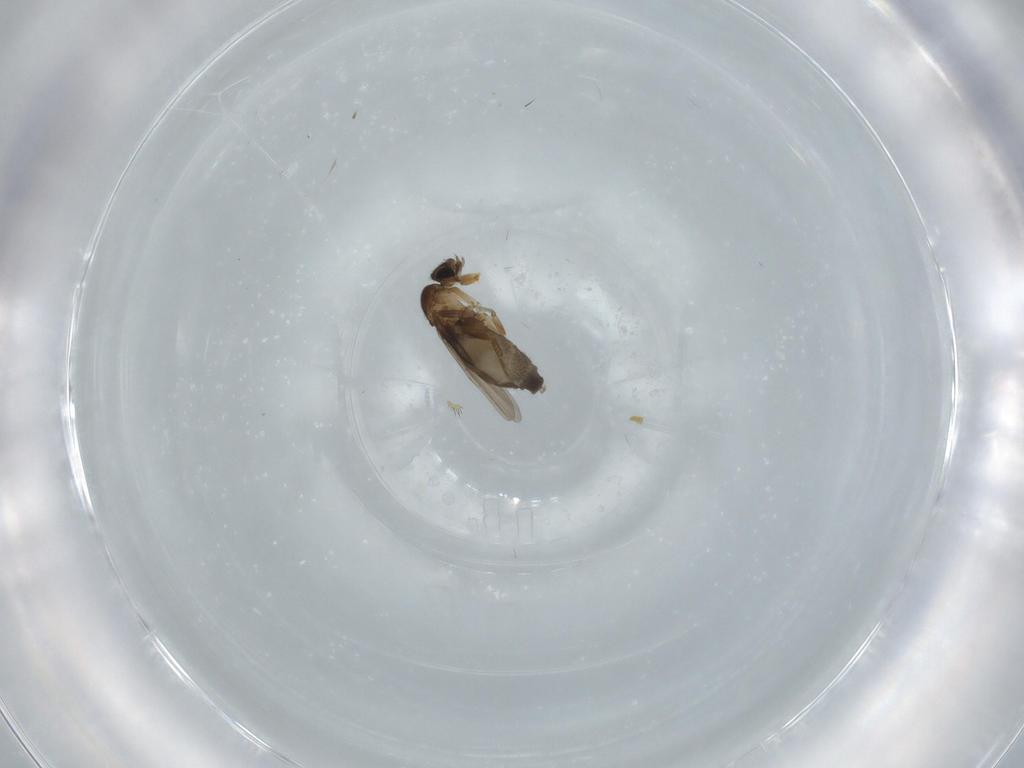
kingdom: Animalia
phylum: Arthropoda
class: Insecta
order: Diptera
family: Phoridae
